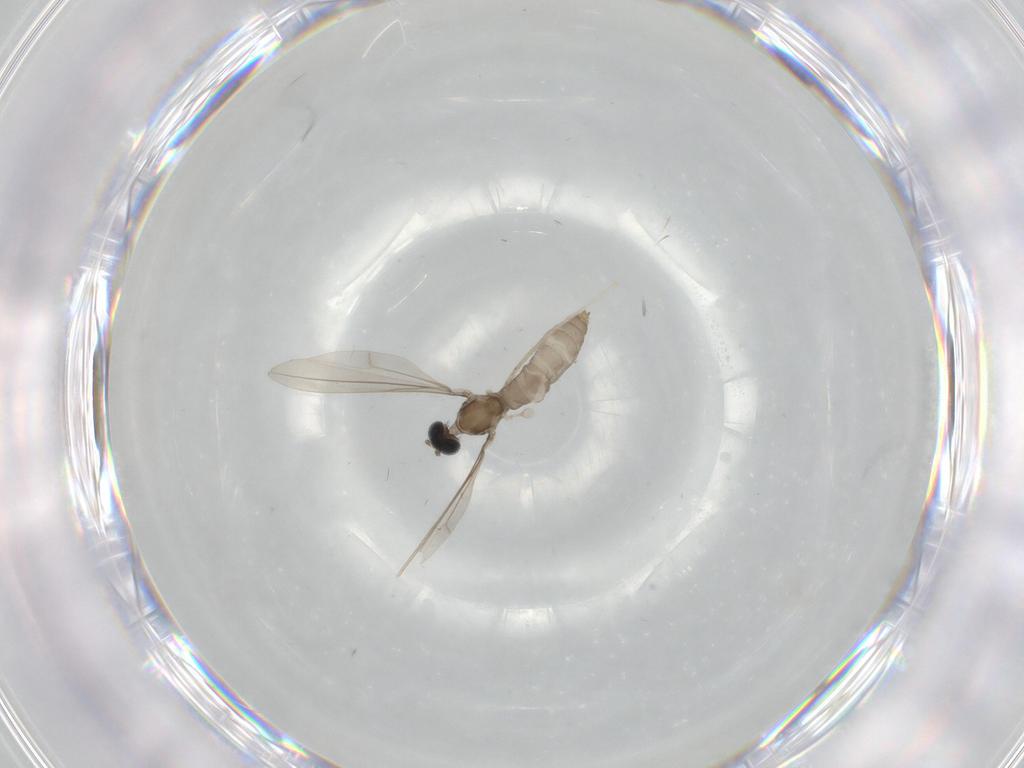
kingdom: Animalia
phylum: Arthropoda
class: Insecta
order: Diptera
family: Cecidomyiidae
